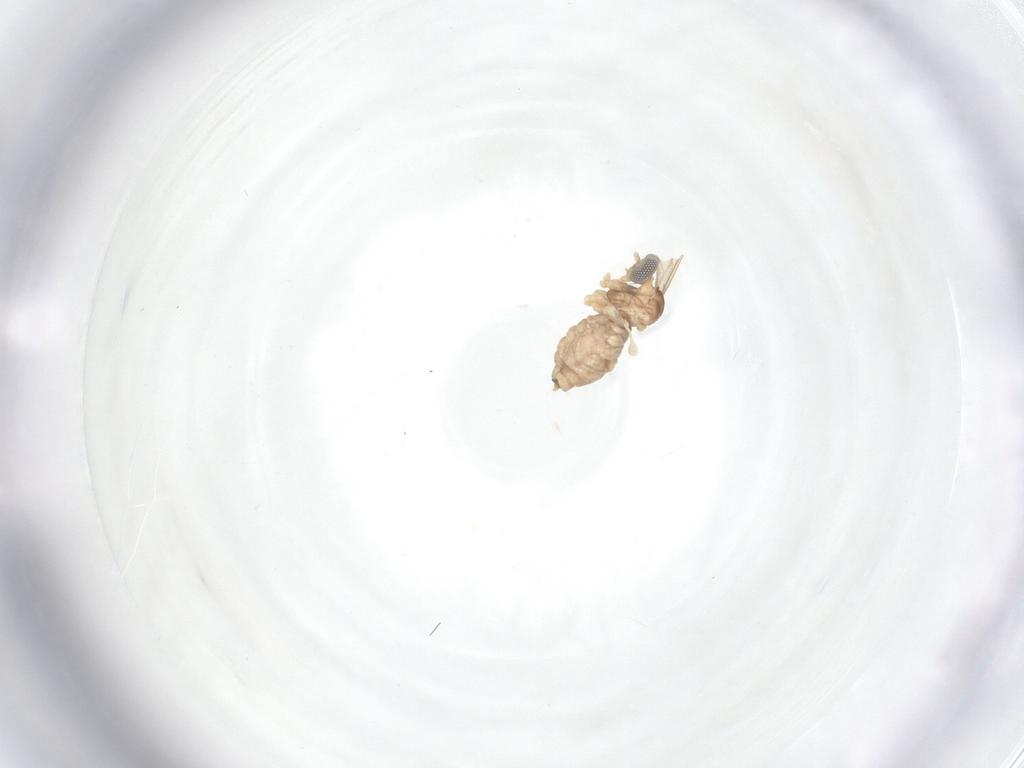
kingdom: Animalia
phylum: Arthropoda
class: Insecta
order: Diptera
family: Cecidomyiidae
